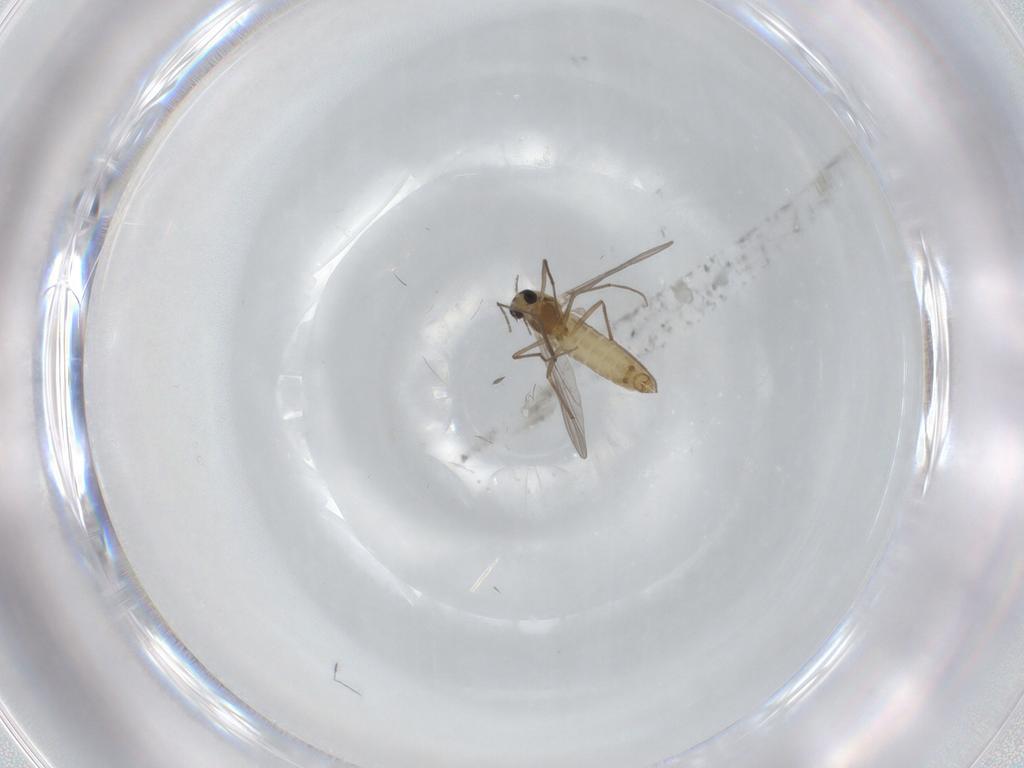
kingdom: Animalia
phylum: Arthropoda
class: Insecta
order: Diptera
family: Chironomidae
